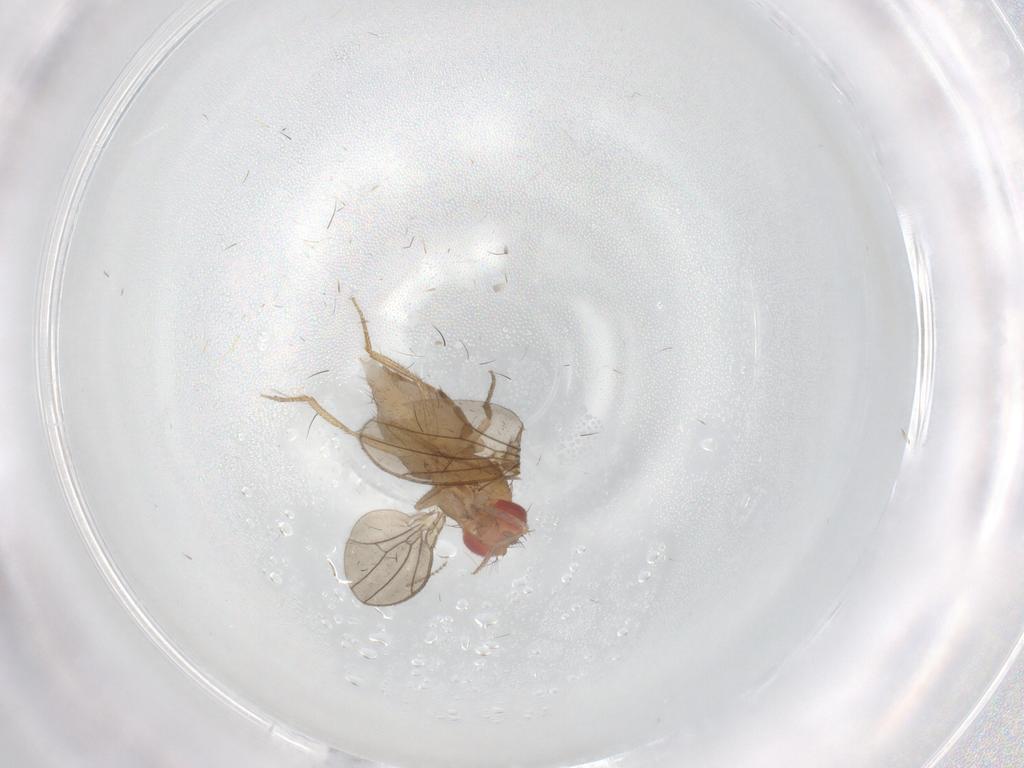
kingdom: Animalia
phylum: Arthropoda
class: Insecta
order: Diptera
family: Drosophilidae
